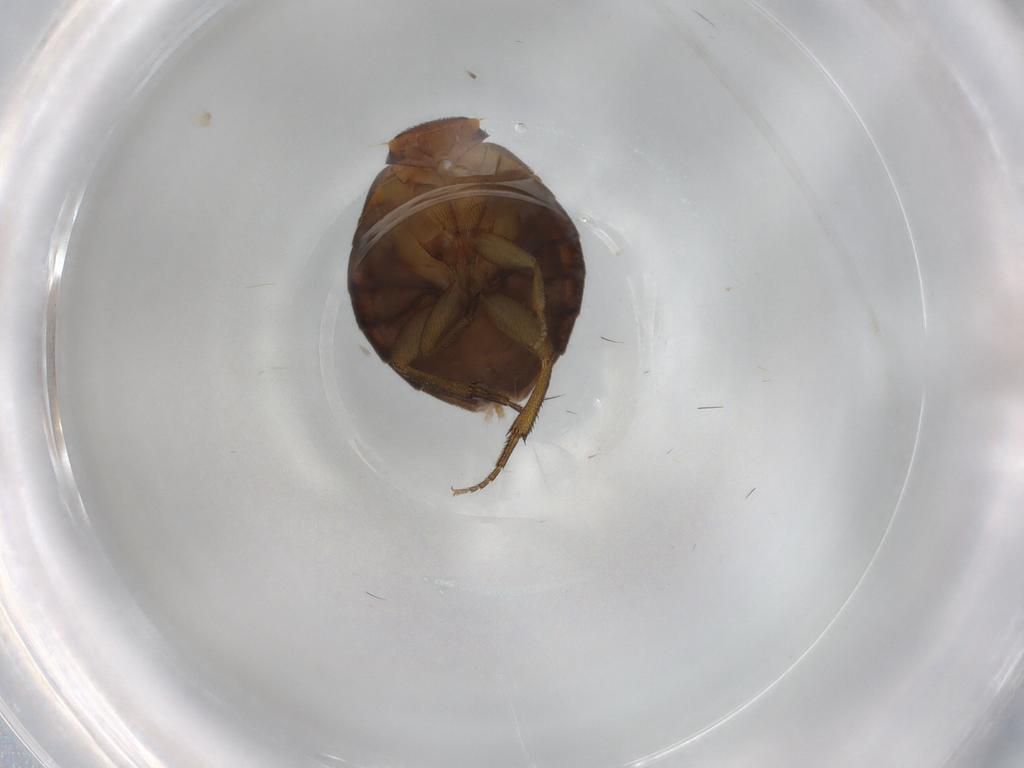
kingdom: Animalia
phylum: Arthropoda
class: Insecta
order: Diptera
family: Phoridae
